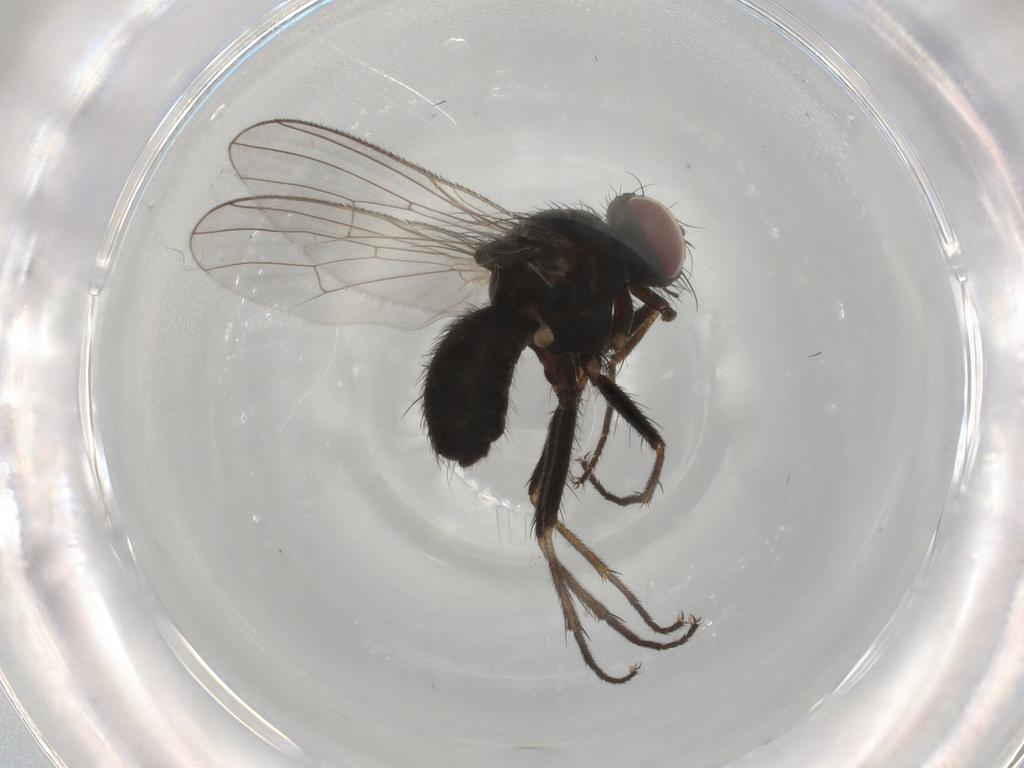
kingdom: Animalia
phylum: Arthropoda
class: Insecta
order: Diptera
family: Muscidae
